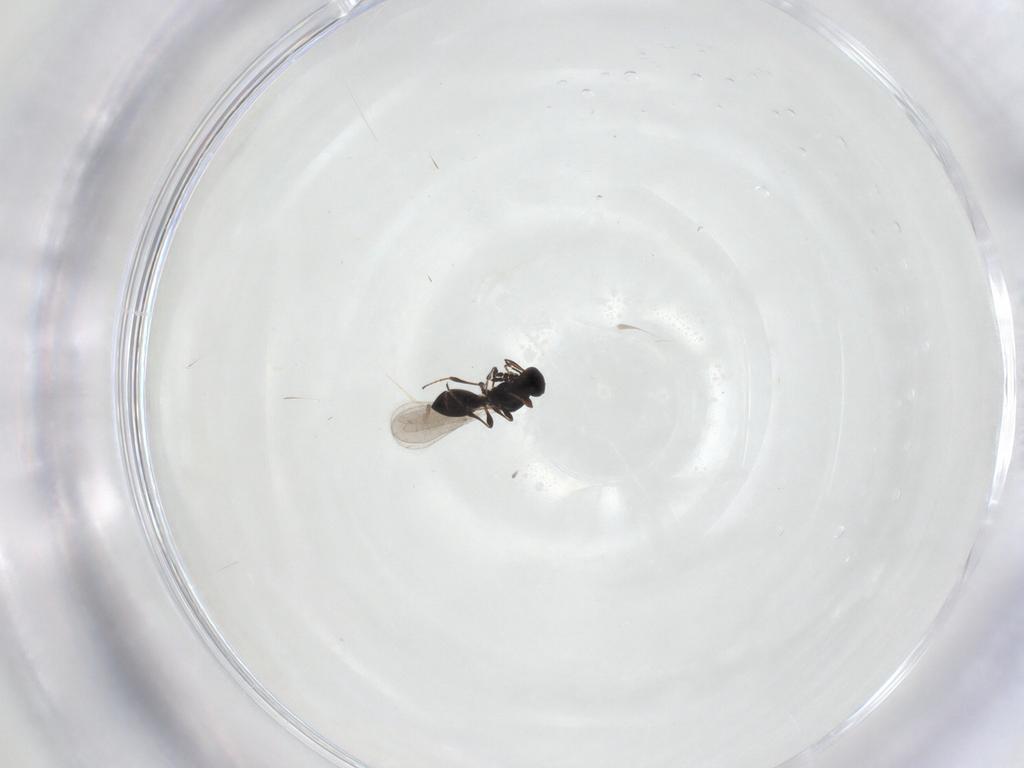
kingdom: Animalia
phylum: Arthropoda
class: Insecta
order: Hymenoptera
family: Platygastridae
